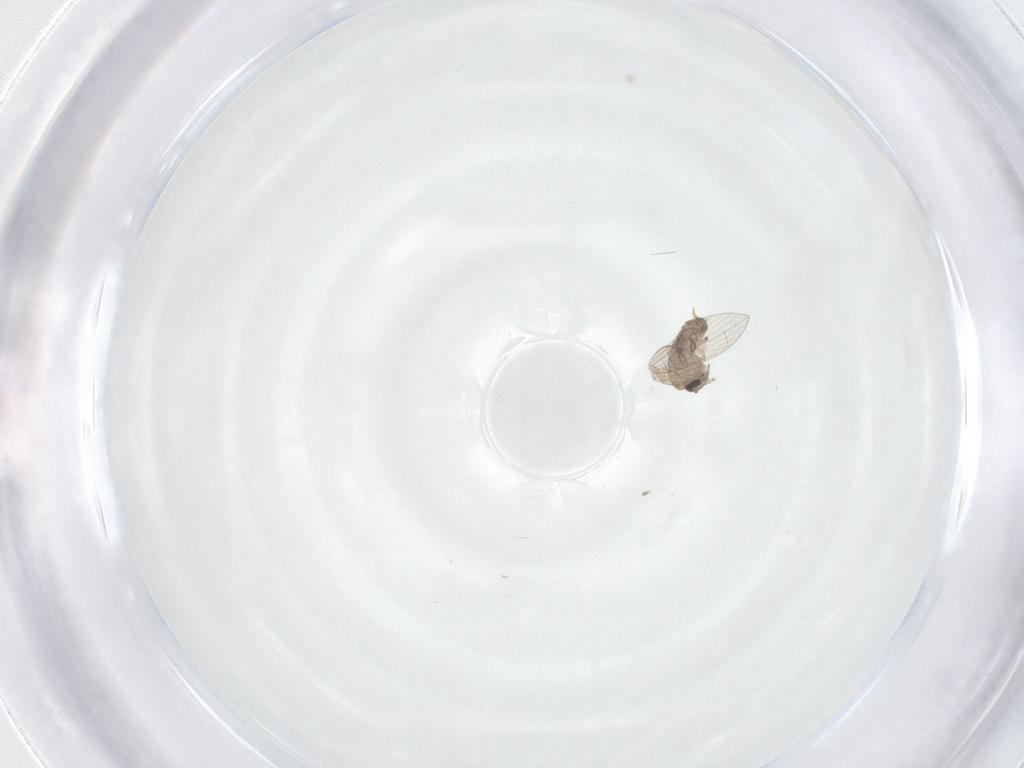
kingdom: Animalia
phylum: Arthropoda
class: Insecta
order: Diptera
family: Psychodidae
